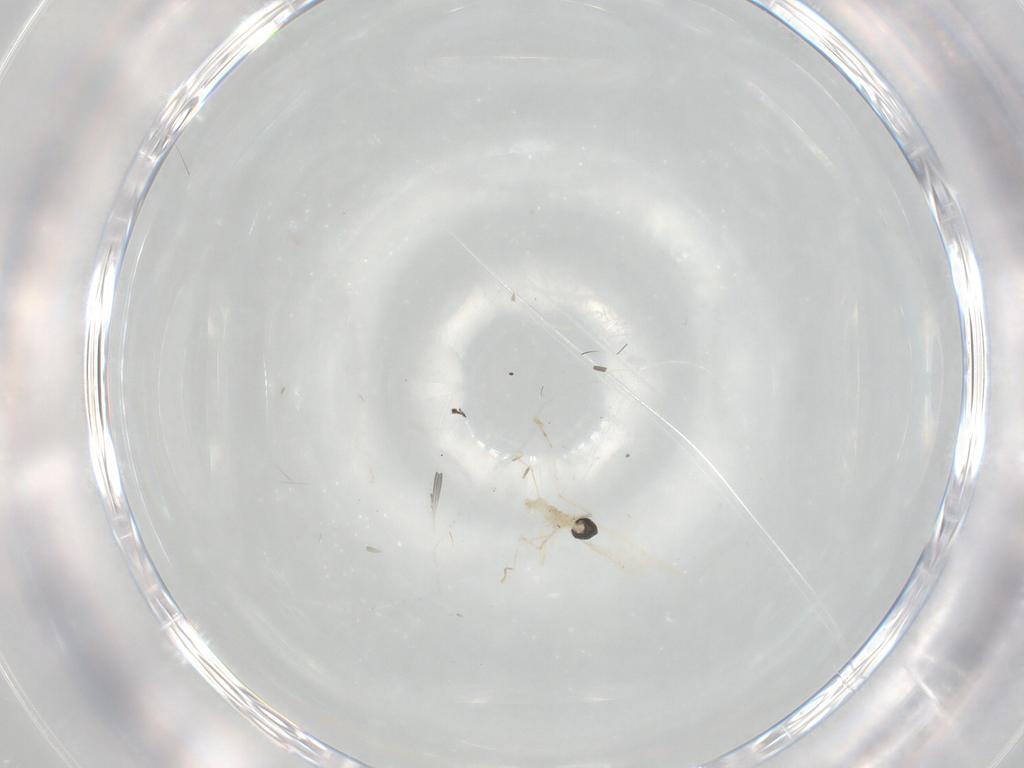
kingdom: Animalia
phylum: Arthropoda
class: Insecta
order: Diptera
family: Cecidomyiidae
